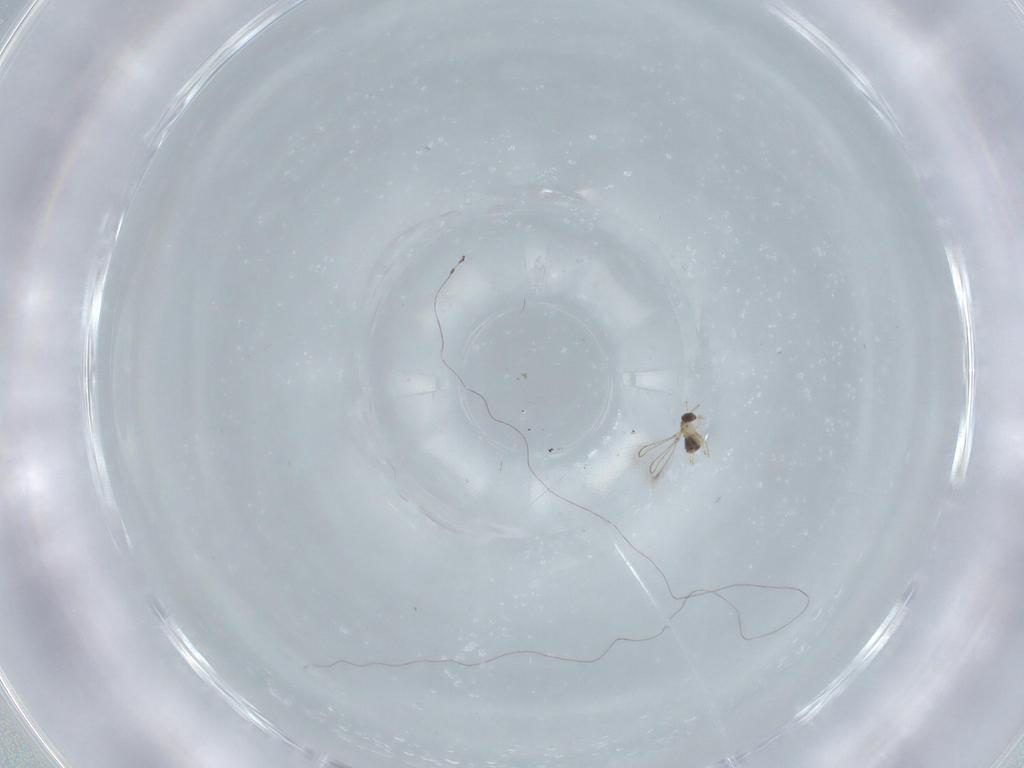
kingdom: Animalia
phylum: Arthropoda
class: Insecta
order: Hymenoptera
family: Mymaridae
